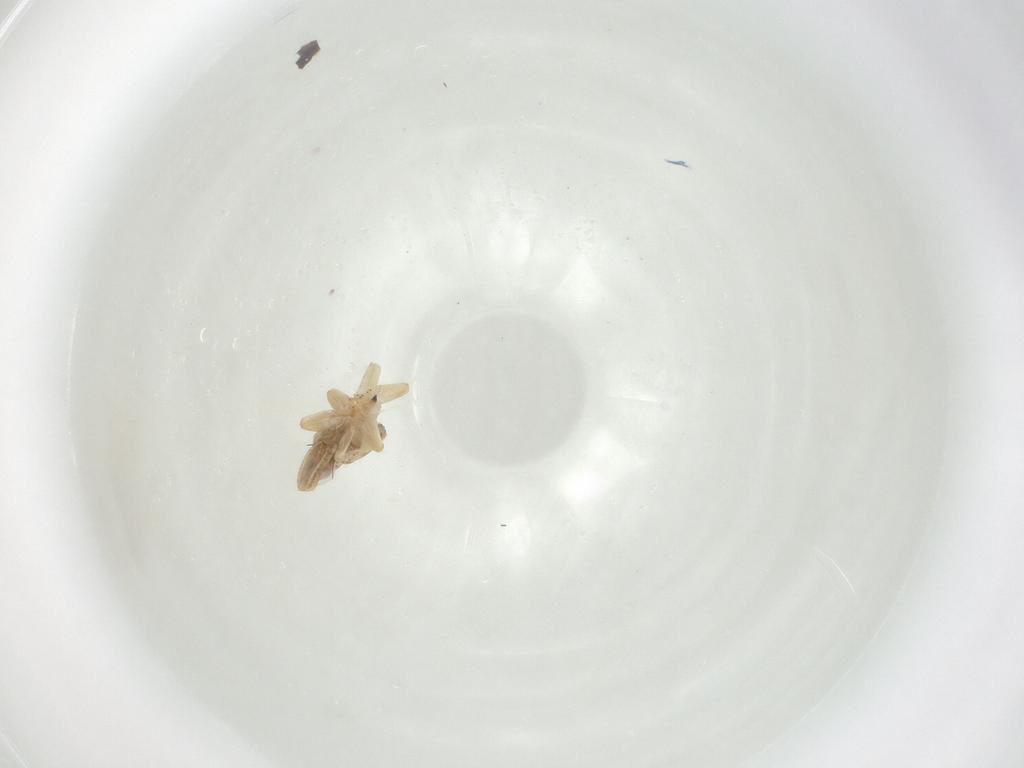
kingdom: Animalia
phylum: Arthropoda
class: Insecta
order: Hemiptera
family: Tropiduchidae
